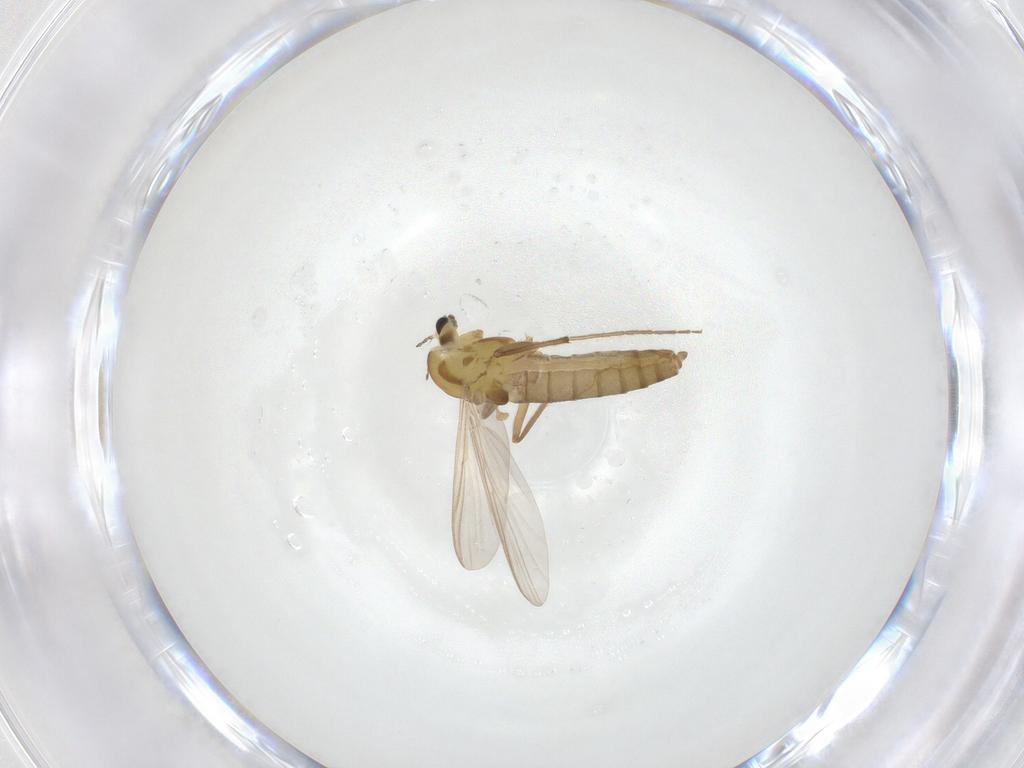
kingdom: Animalia
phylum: Arthropoda
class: Insecta
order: Diptera
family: Chironomidae
